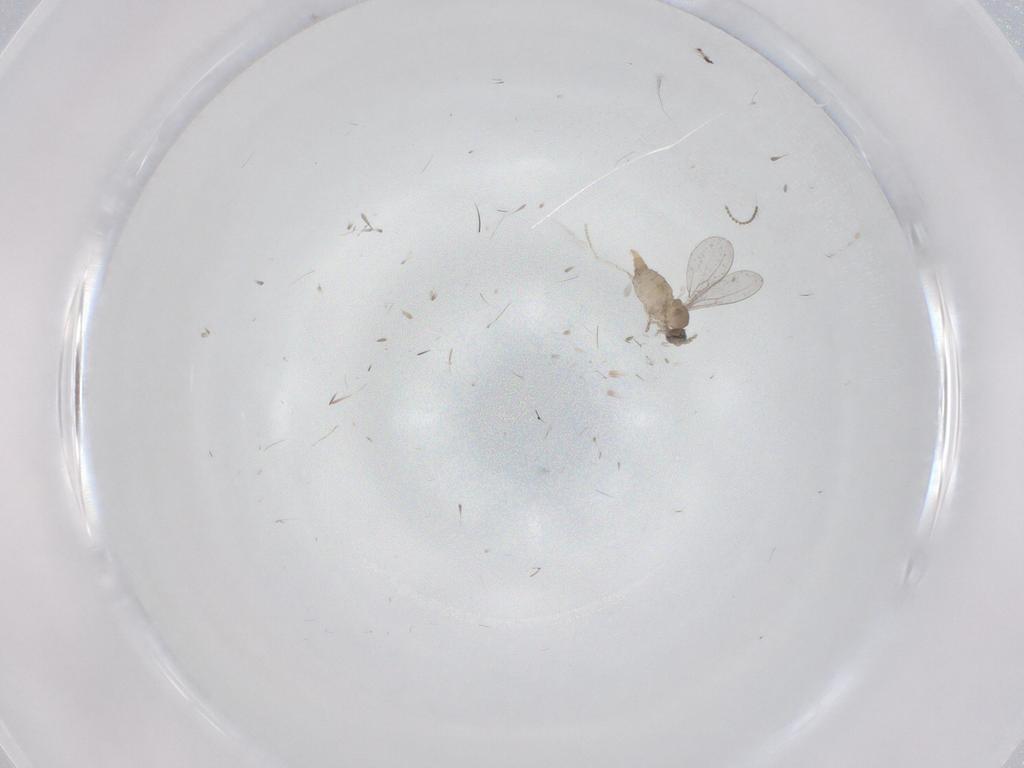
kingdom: Animalia
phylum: Arthropoda
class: Insecta
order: Diptera
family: Cecidomyiidae
